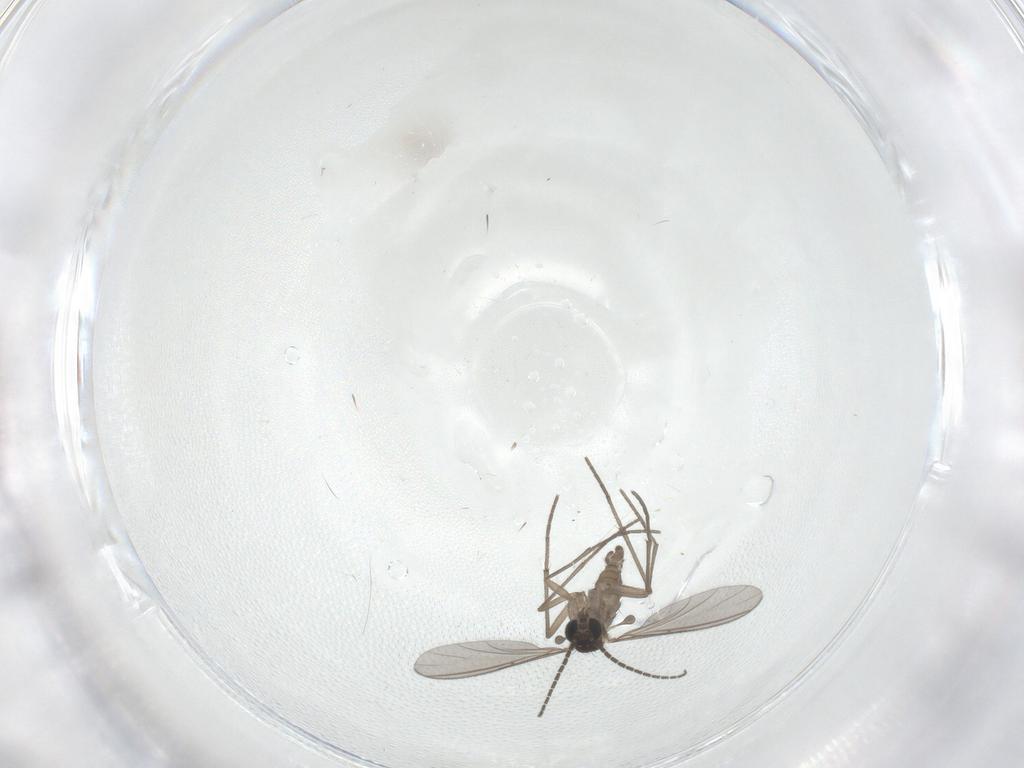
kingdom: Animalia
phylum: Arthropoda
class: Insecta
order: Diptera
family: Sciaridae
